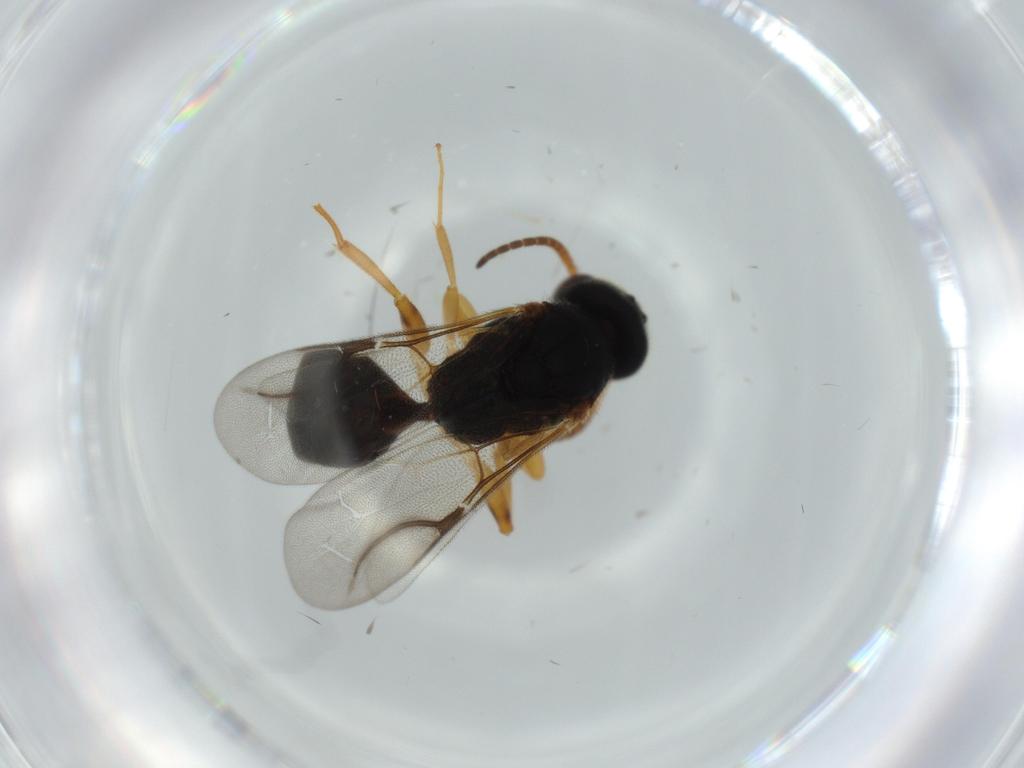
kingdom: Animalia
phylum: Arthropoda
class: Insecta
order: Hymenoptera
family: Bethylidae
